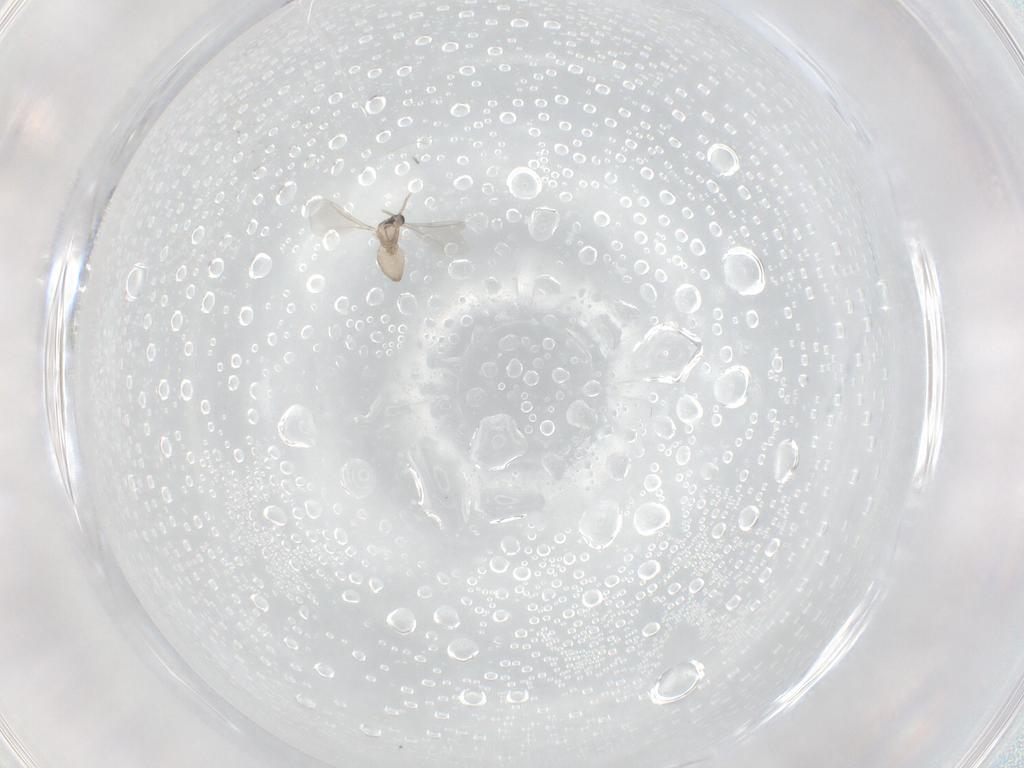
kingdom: Animalia
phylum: Arthropoda
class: Insecta
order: Diptera
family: Cecidomyiidae
